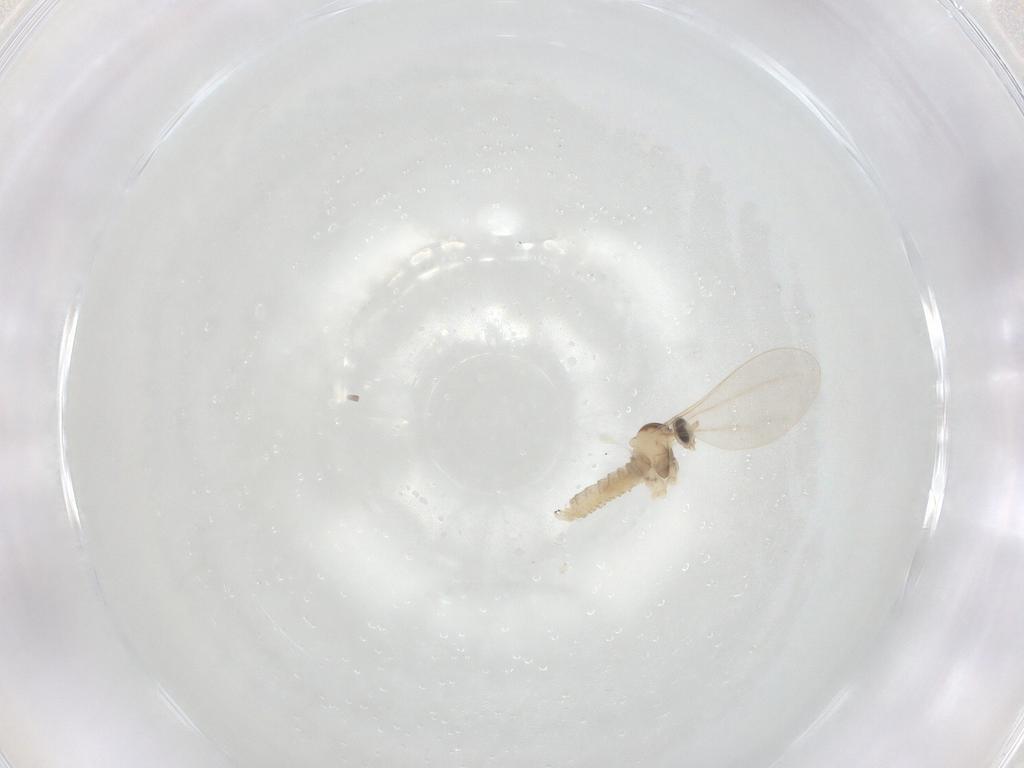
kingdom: Animalia
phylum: Arthropoda
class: Insecta
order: Diptera
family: Cecidomyiidae
